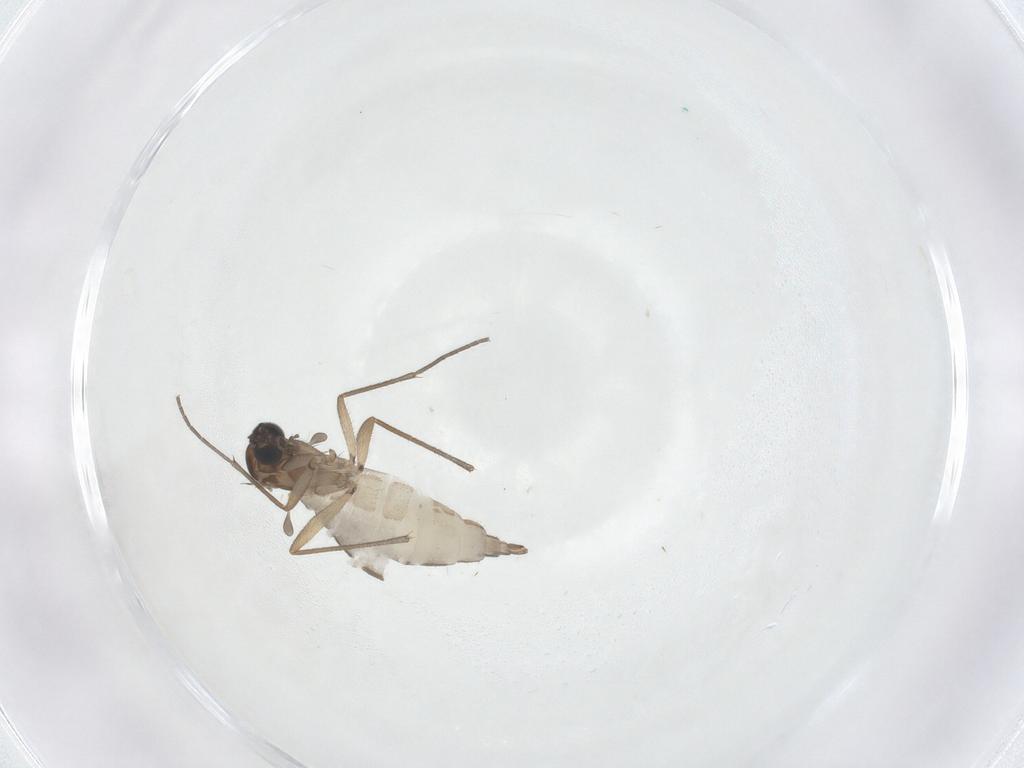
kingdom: Animalia
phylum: Arthropoda
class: Insecta
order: Diptera
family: Sciaridae
